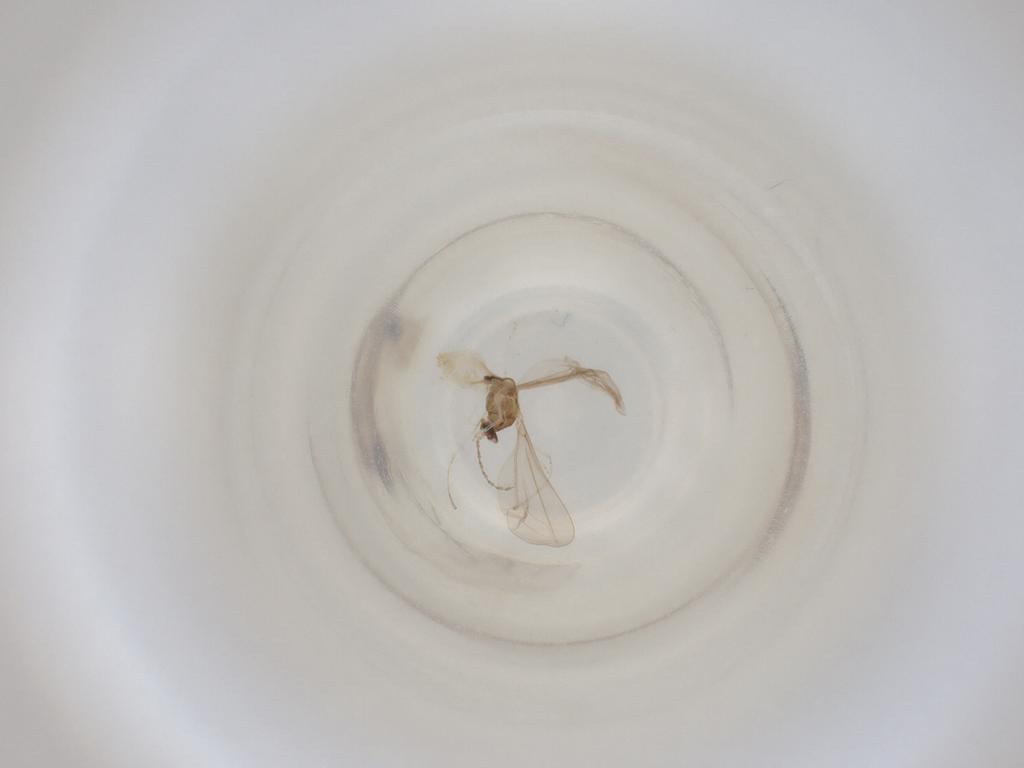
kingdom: Animalia
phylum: Arthropoda
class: Insecta
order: Diptera
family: Cecidomyiidae
